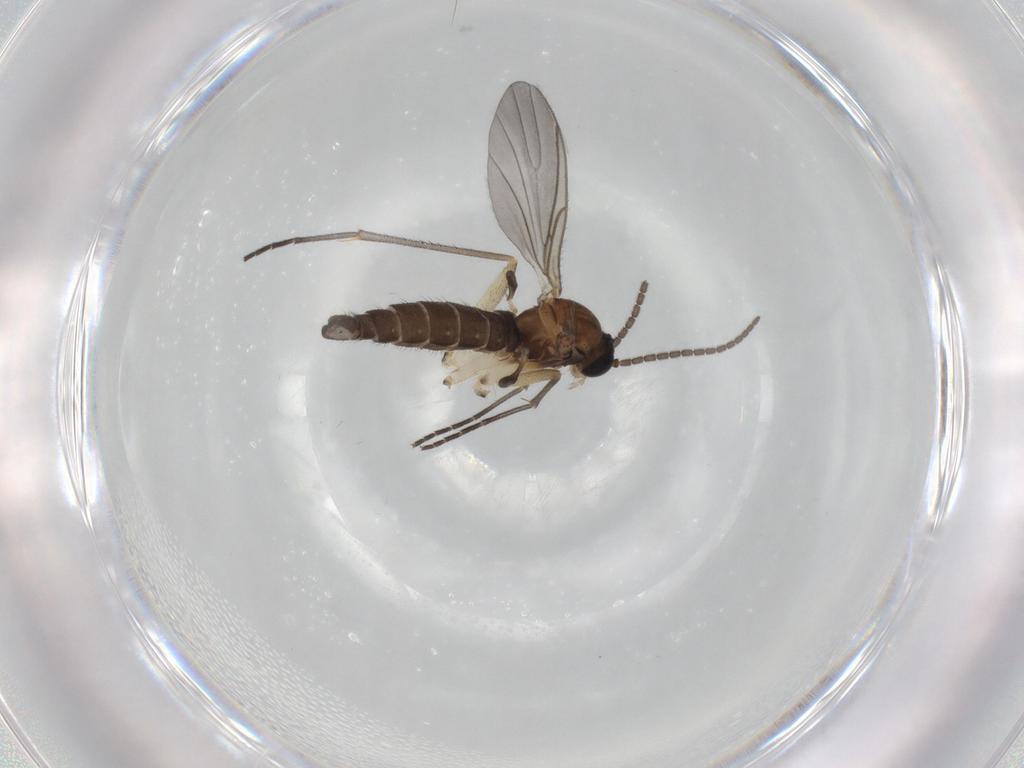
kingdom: Animalia
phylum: Arthropoda
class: Insecta
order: Diptera
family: Sciaridae
